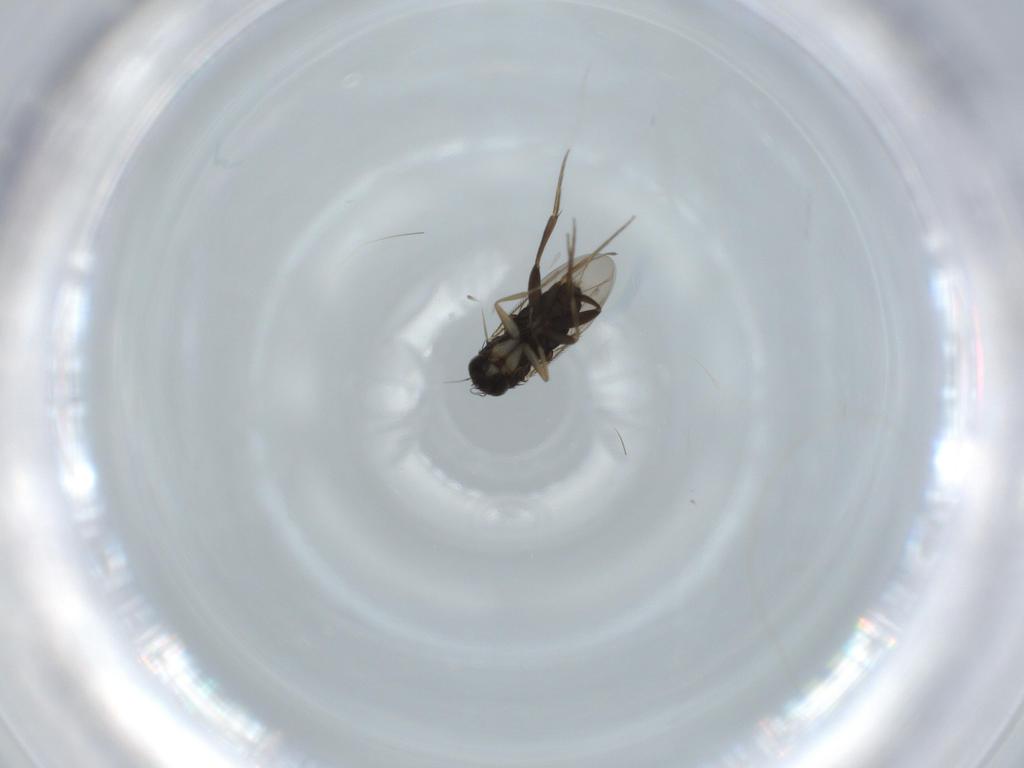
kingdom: Animalia
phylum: Arthropoda
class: Insecta
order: Diptera
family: Phoridae
